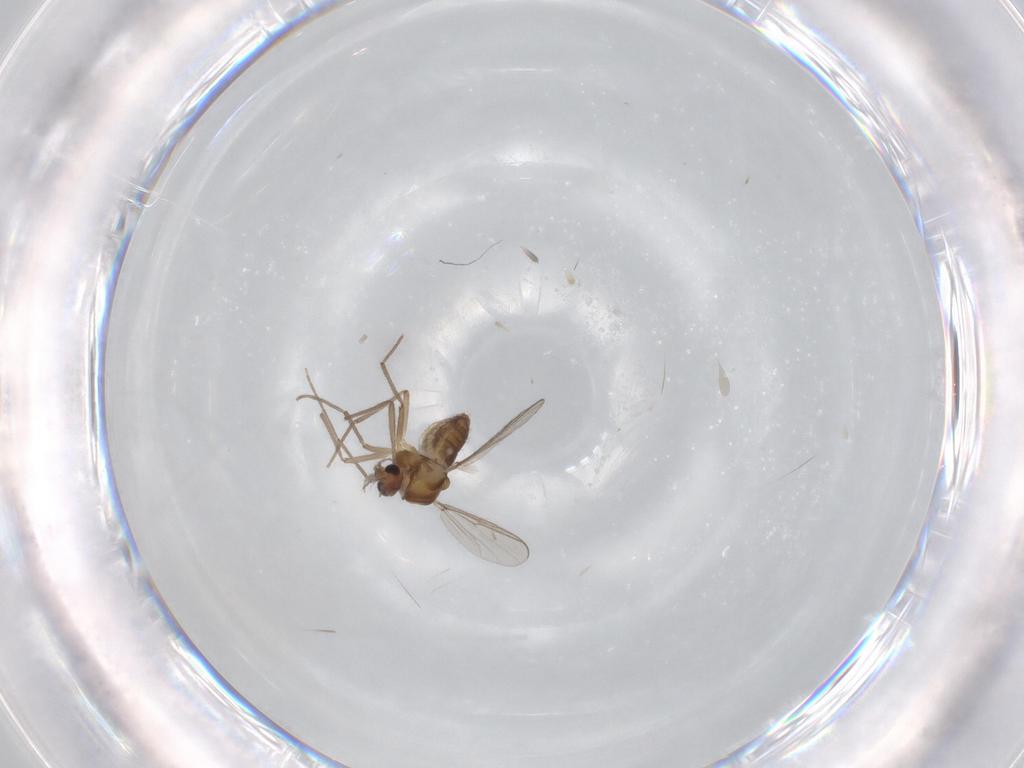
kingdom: Animalia
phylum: Arthropoda
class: Insecta
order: Diptera
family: Chironomidae
